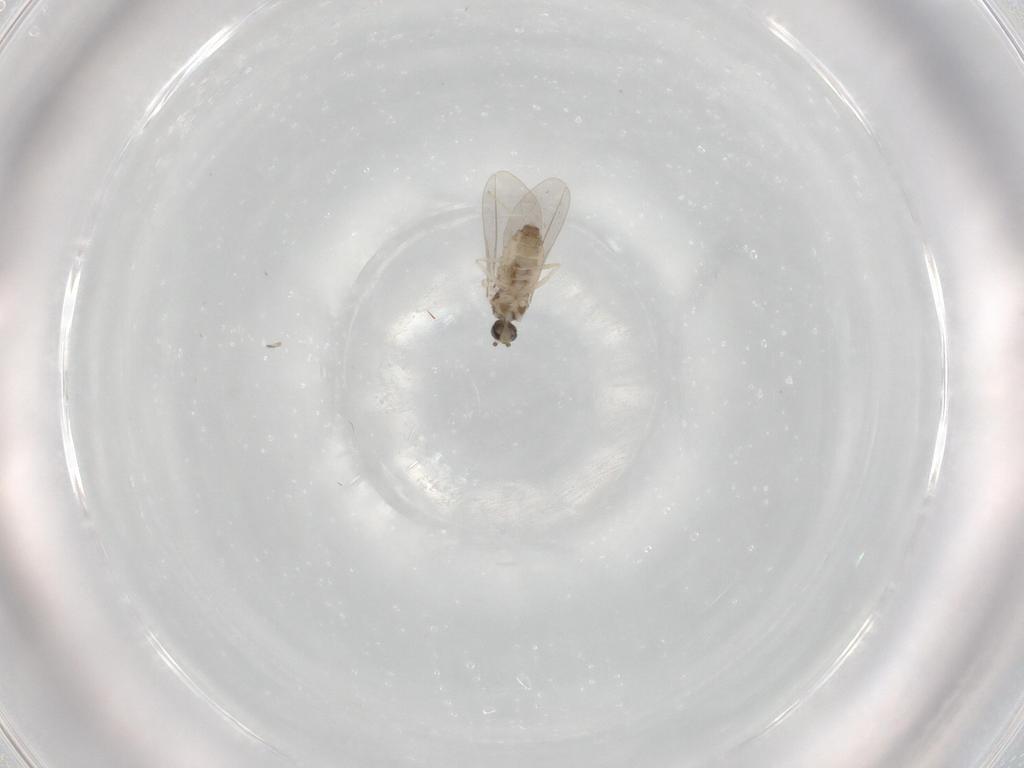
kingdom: Animalia
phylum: Arthropoda
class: Insecta
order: Diptera
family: Cecidomyiidae
